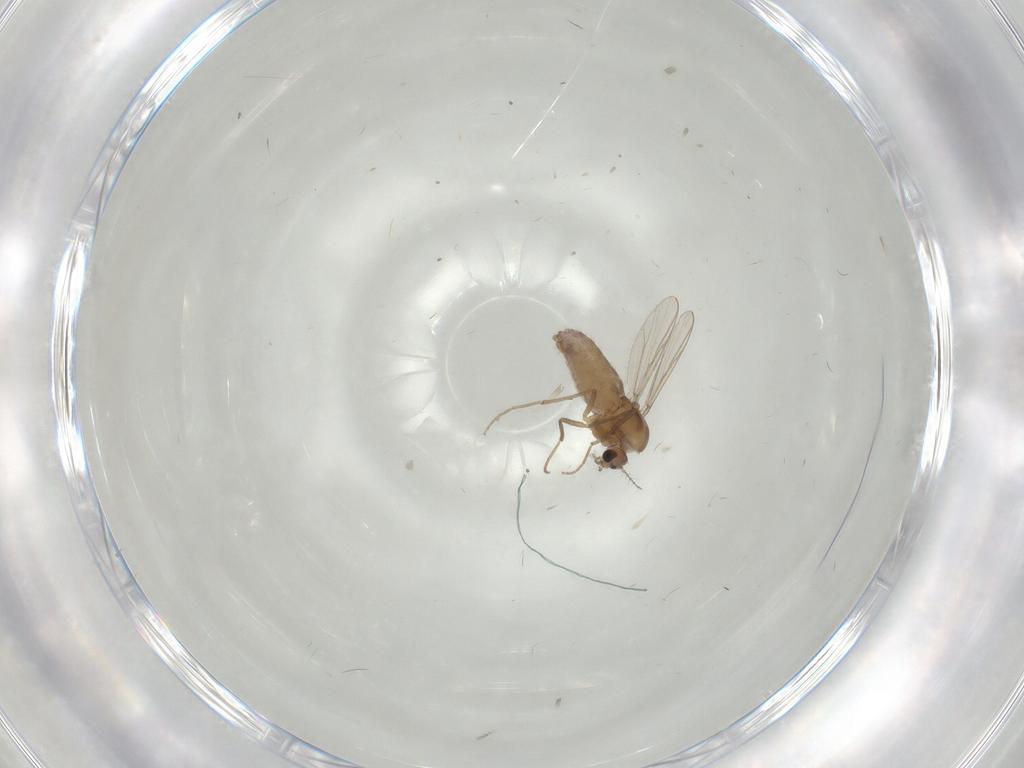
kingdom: Animalia
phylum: Arthropoda
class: Insecta
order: Diptera
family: Chironomidae
